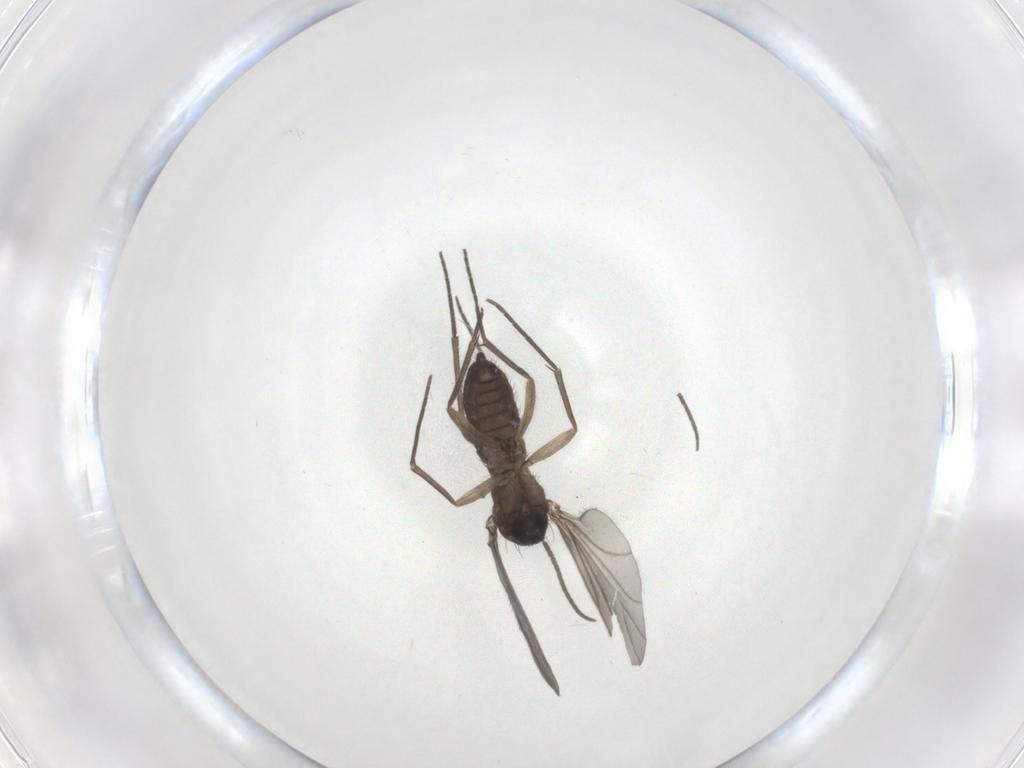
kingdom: Animalia
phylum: Arthropoda
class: Insecta
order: Diptera
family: Sciaridae
